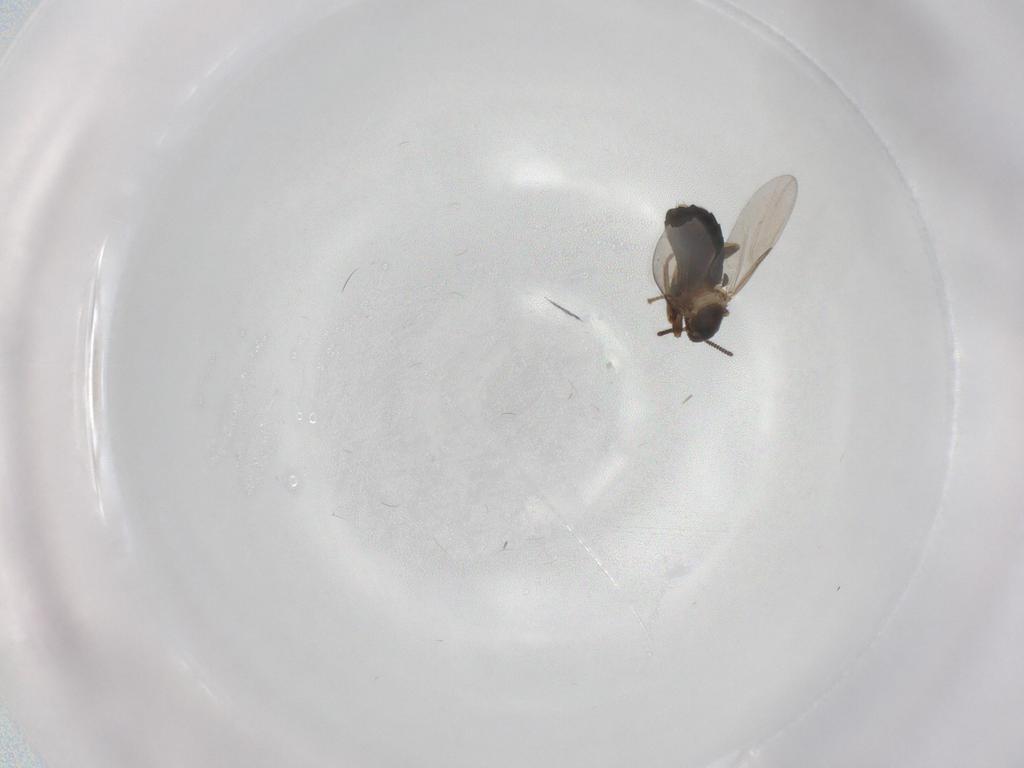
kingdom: Animalia
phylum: Arthropoda
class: Insecta
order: Diptera
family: Scatopsidae
